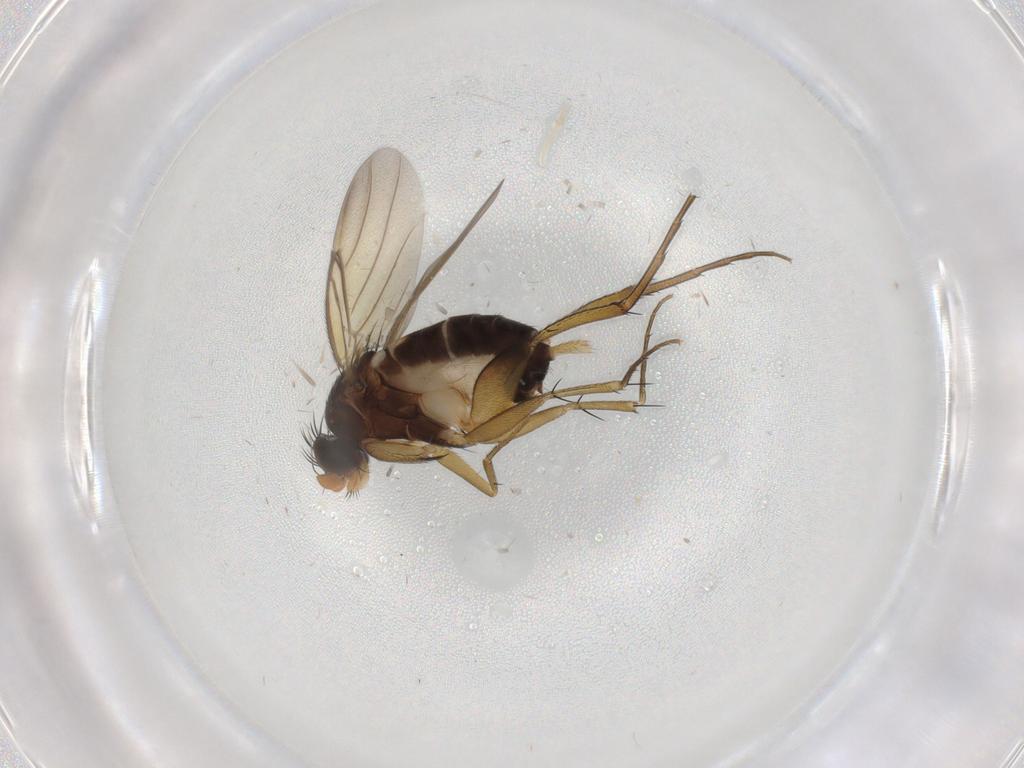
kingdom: Animalia
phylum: Arthropoda
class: Insecta
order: Diptera
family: Phoridae
